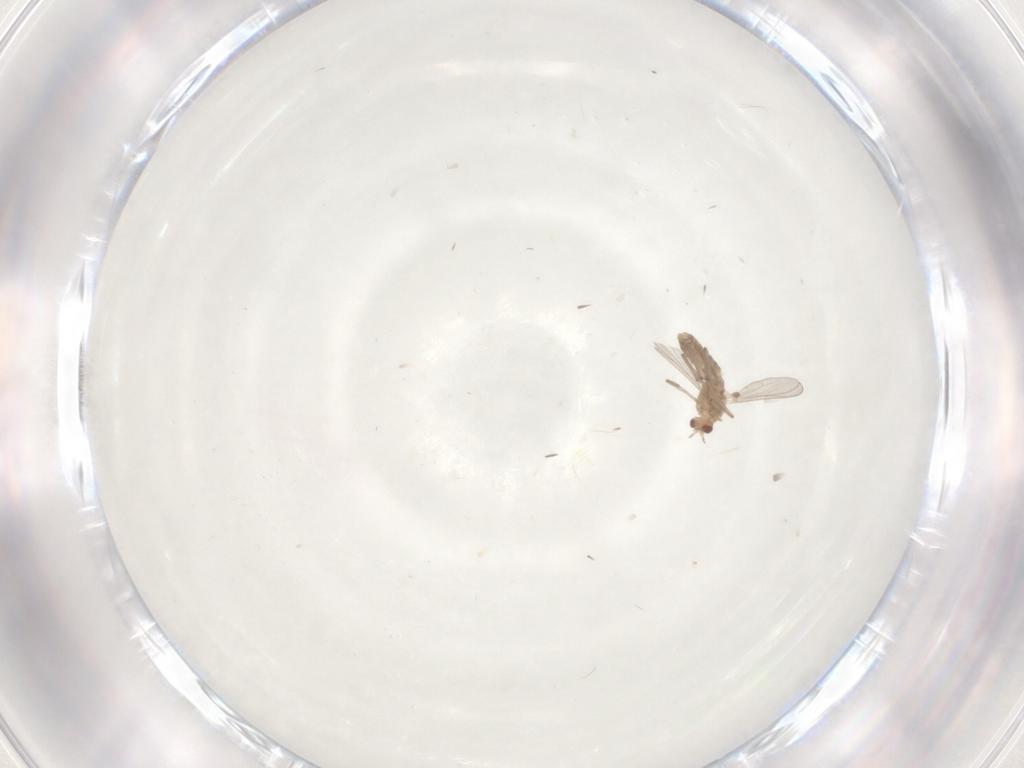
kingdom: Animalia
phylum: Arthropoda
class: Insecta
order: Diptera
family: Chironomidae
